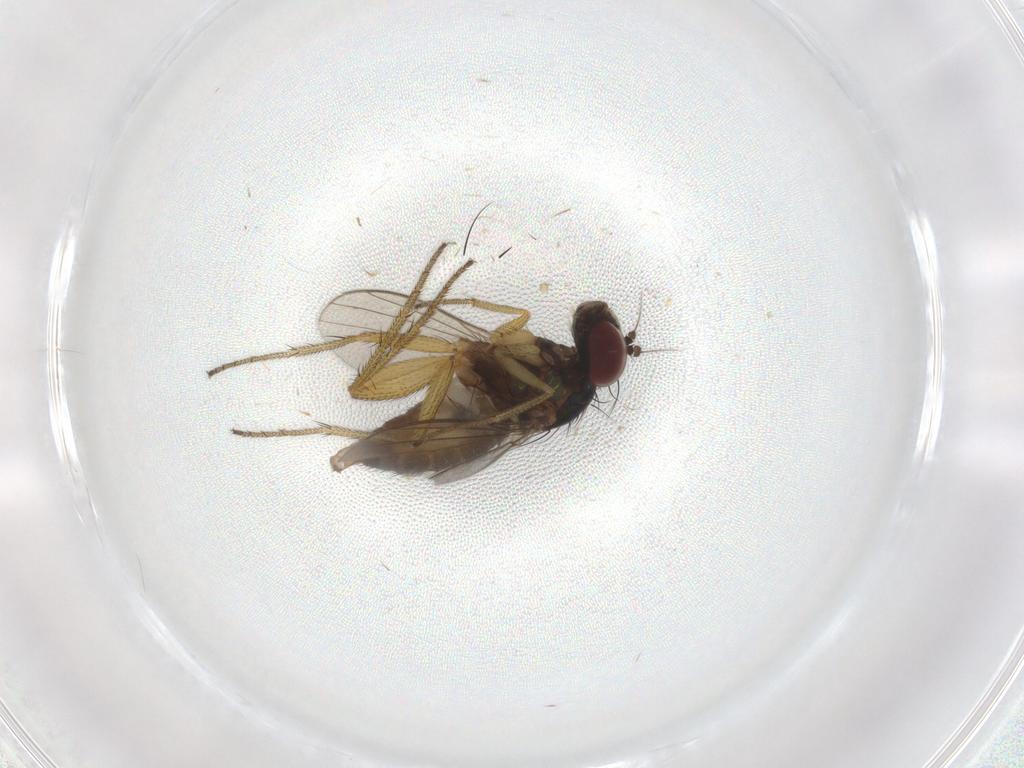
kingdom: Animalia
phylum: Arthropoda
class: Insecta
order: Diptera
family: Dolichopodidae
